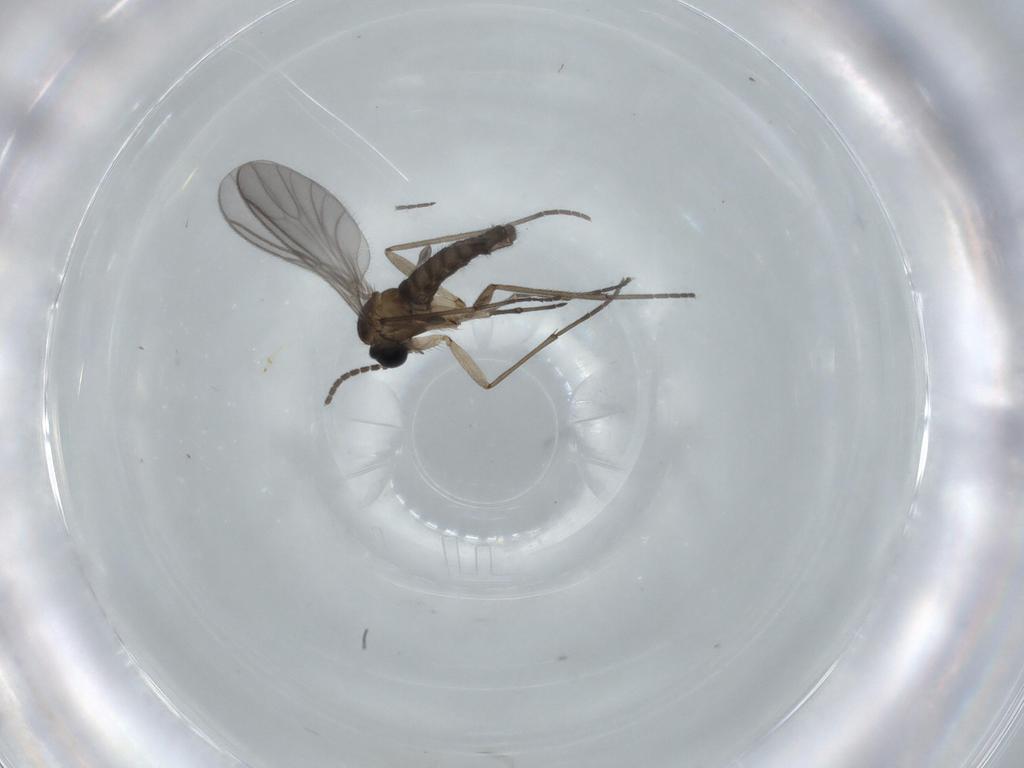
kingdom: Animalia
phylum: Arthropoda
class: Insecta
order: Diptera
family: Sciaridae
